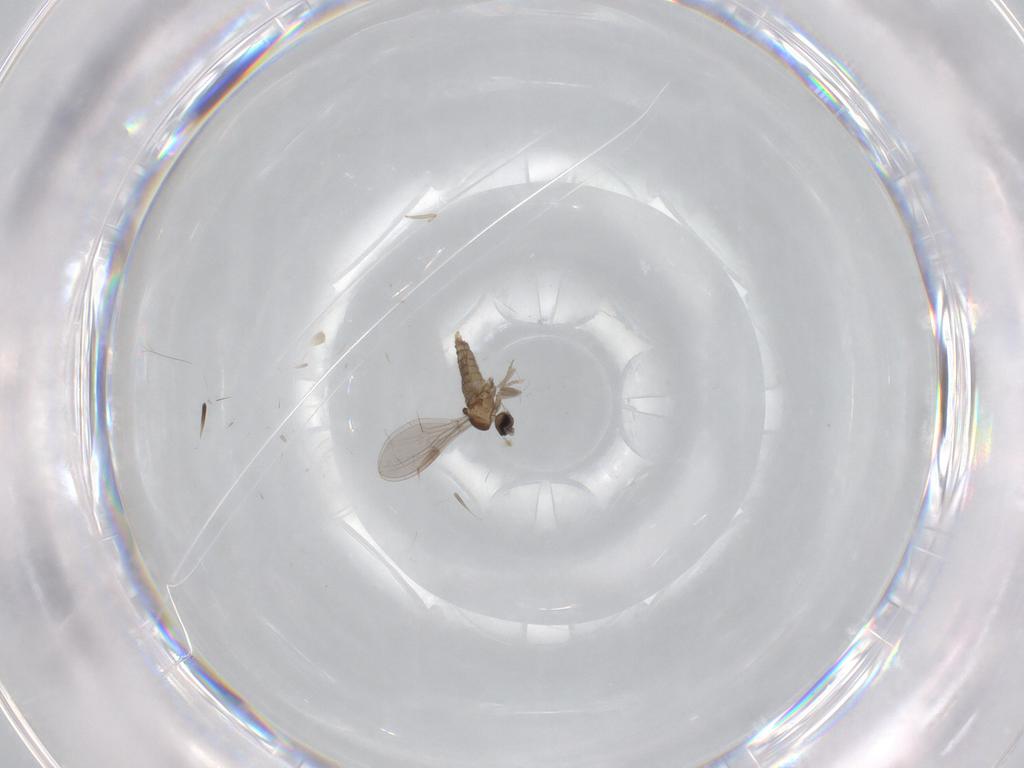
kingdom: Animalia
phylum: Arthropoda
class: Insecta
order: Diptera
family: Cecidomyiidae
